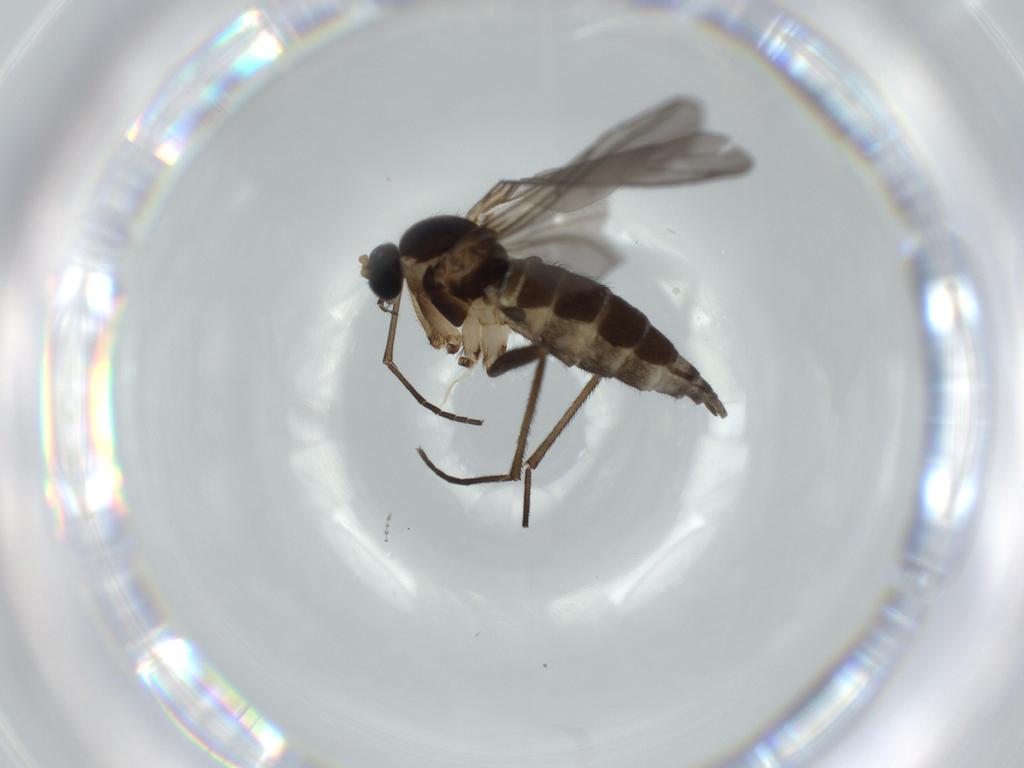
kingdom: Animalia
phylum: Arthropoda
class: Insecta
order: Diptera
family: Sciaridae
